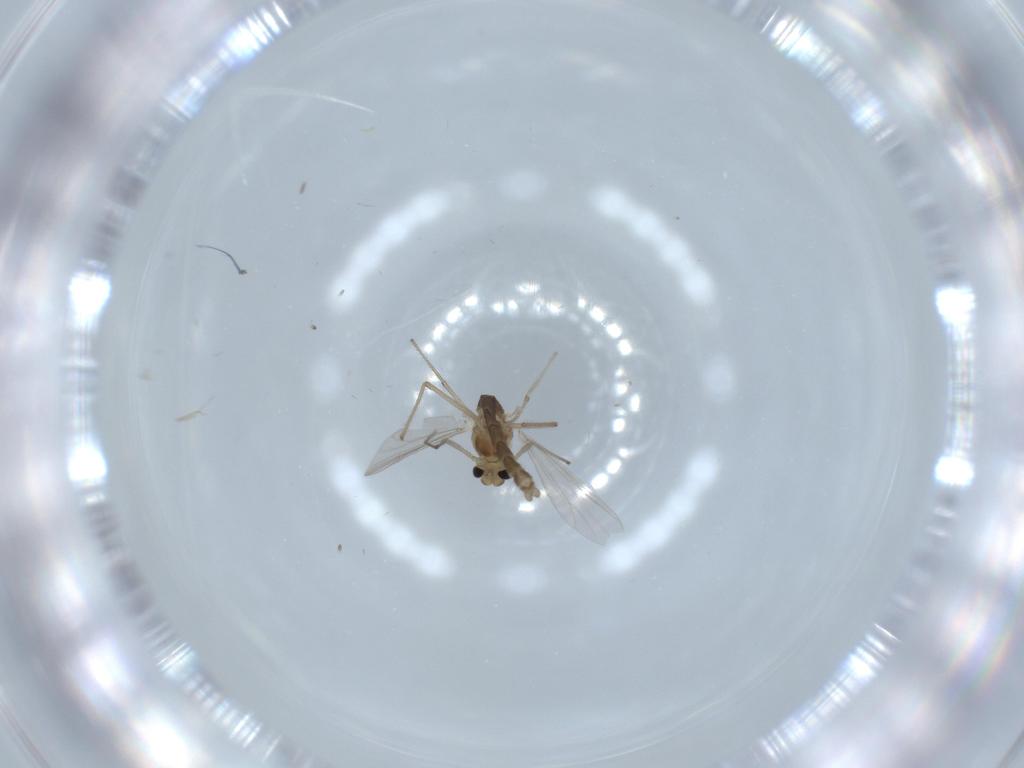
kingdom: Animalia
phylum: Arthropoda
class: Insecta
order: Diptera
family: Chironomidae
